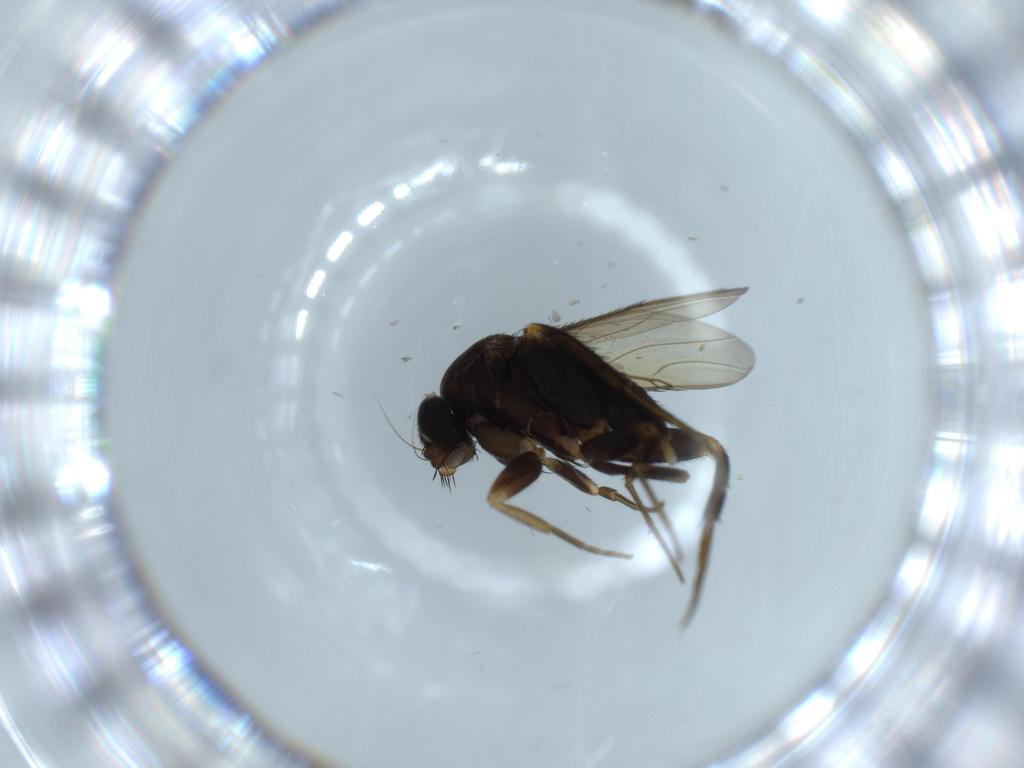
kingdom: Animalia
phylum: Arthropoda
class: Insecta
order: Diptera
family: Phoridae
